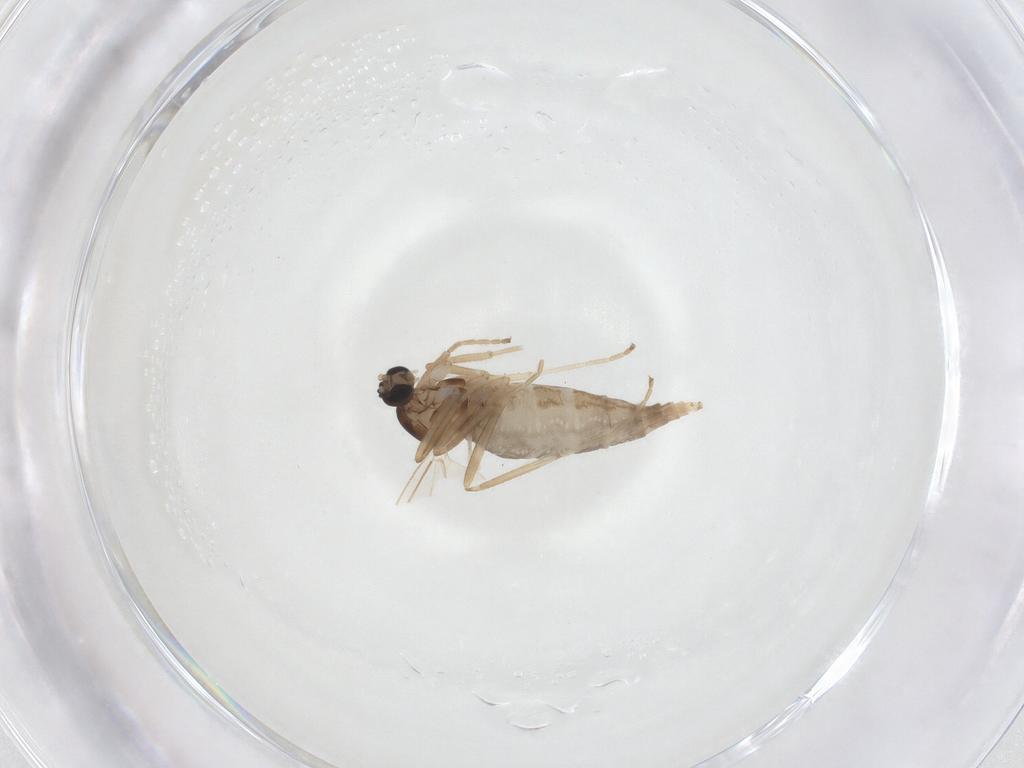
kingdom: Animalia
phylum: Arthropoda
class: Insecta
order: Diptera
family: Cecidomyiidae
